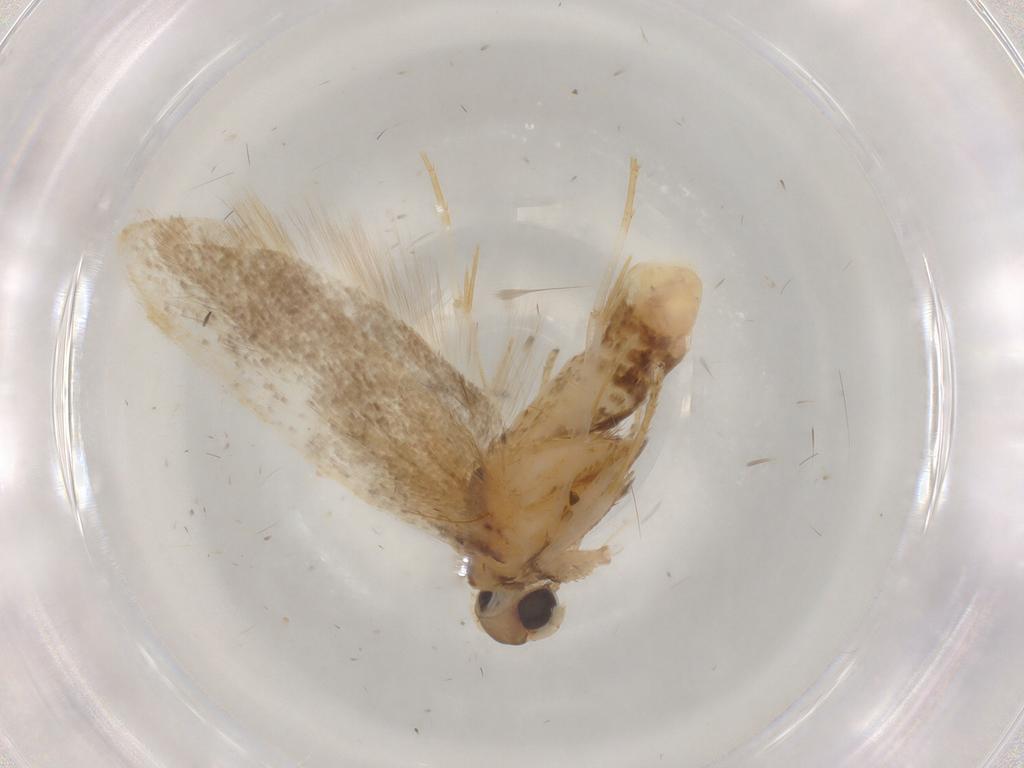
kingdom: Animalia
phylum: Arthropoda
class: Insecta
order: Lepidoptera
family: Lecithoceridae
